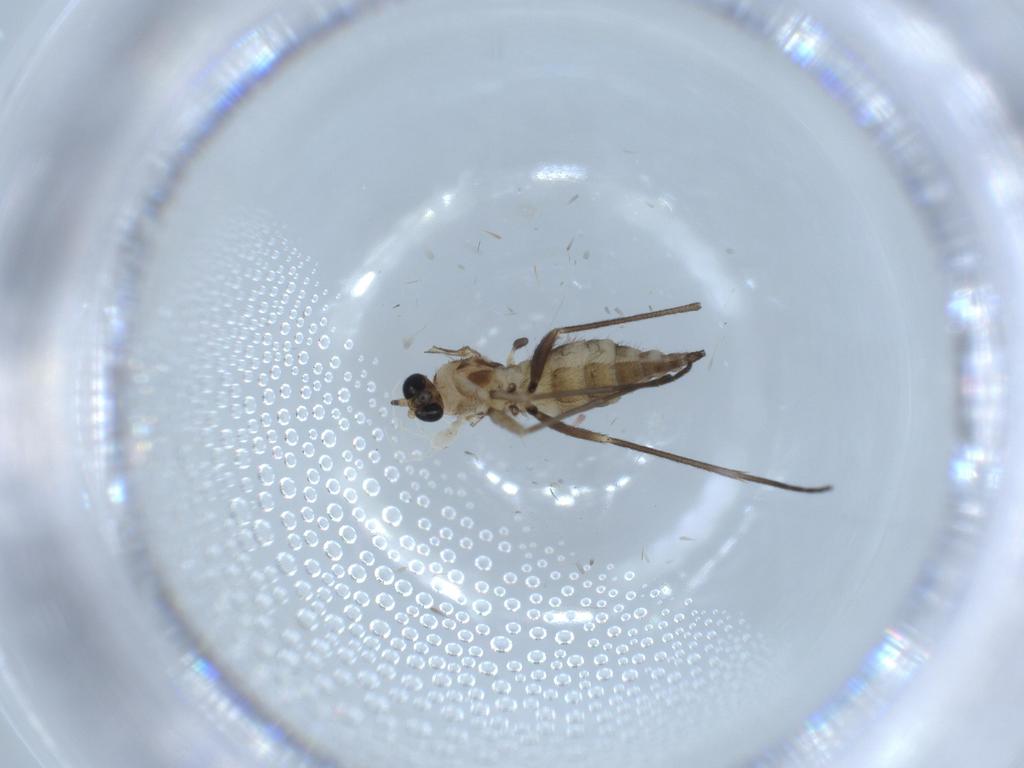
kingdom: Animalia
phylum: Arthropoda
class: Insecta
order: Diptera
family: Sciaridae
